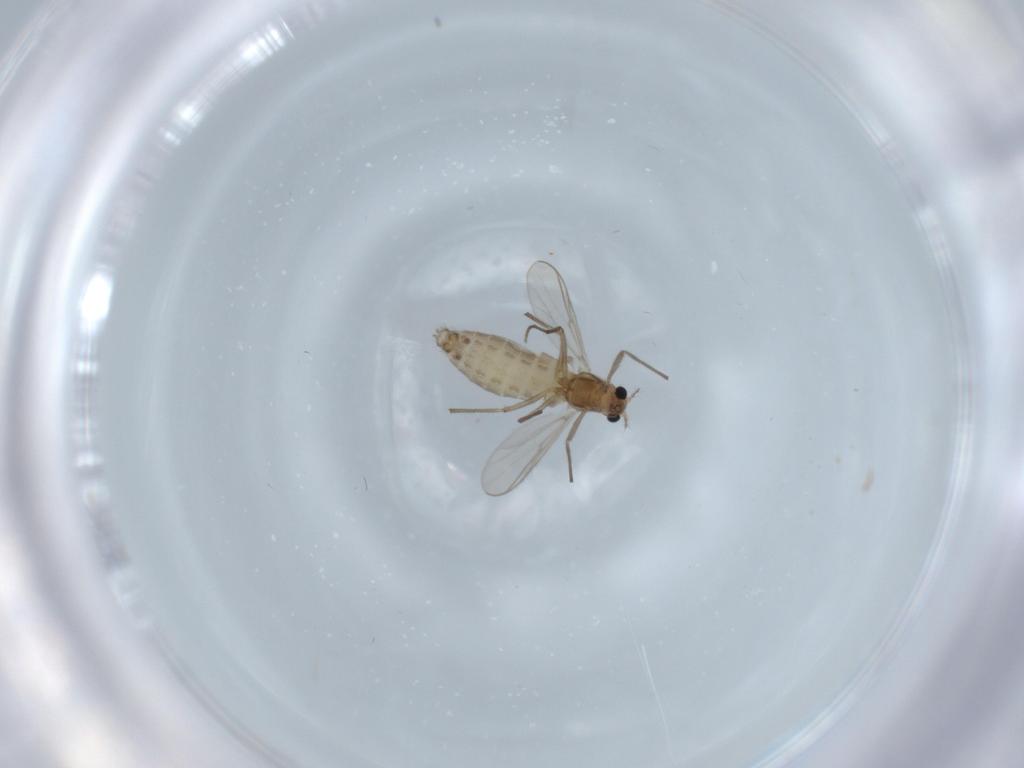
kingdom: Animalia
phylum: Arthropoda
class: Insecta
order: Diptera
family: Chironomidae
